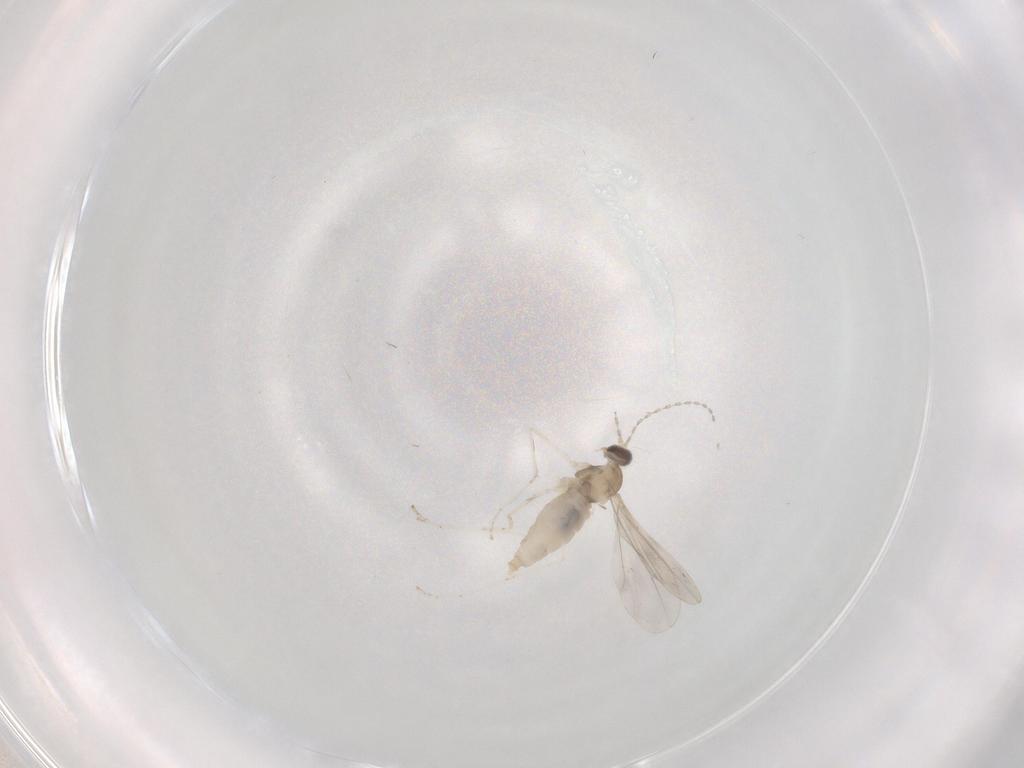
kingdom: Animalia
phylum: Arthropoda
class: Insecta
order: Diptera
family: Cecidomyiidae
